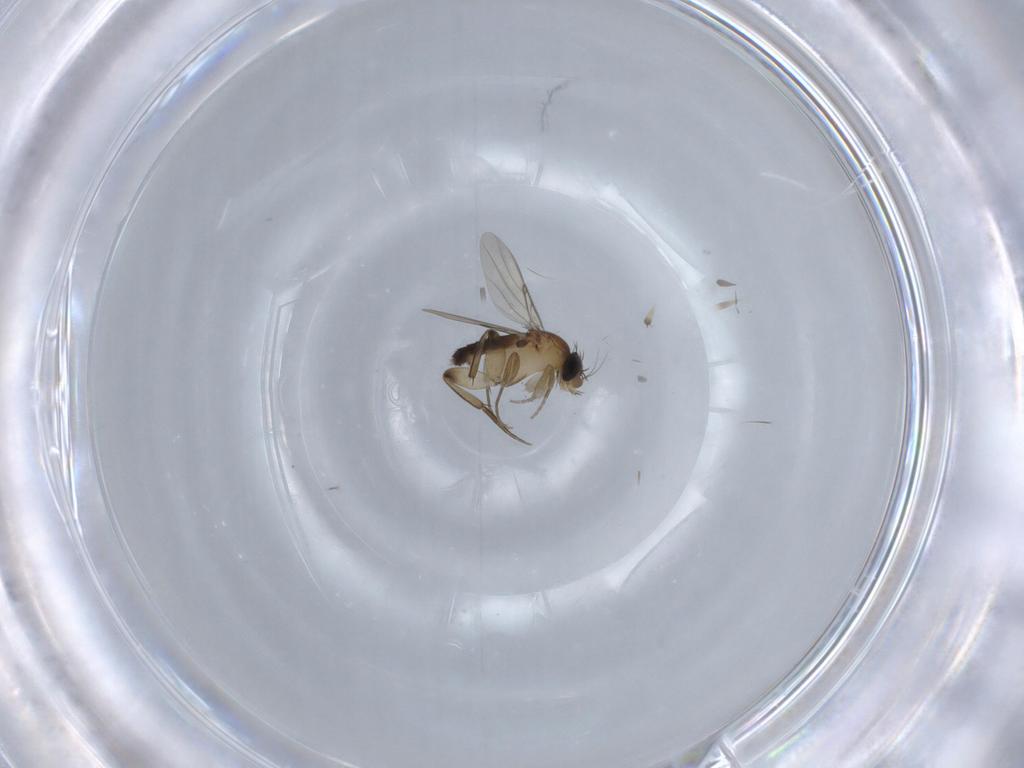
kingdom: Animalia
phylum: Arthropoda
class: Insecta
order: Diptera
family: Phoridae
